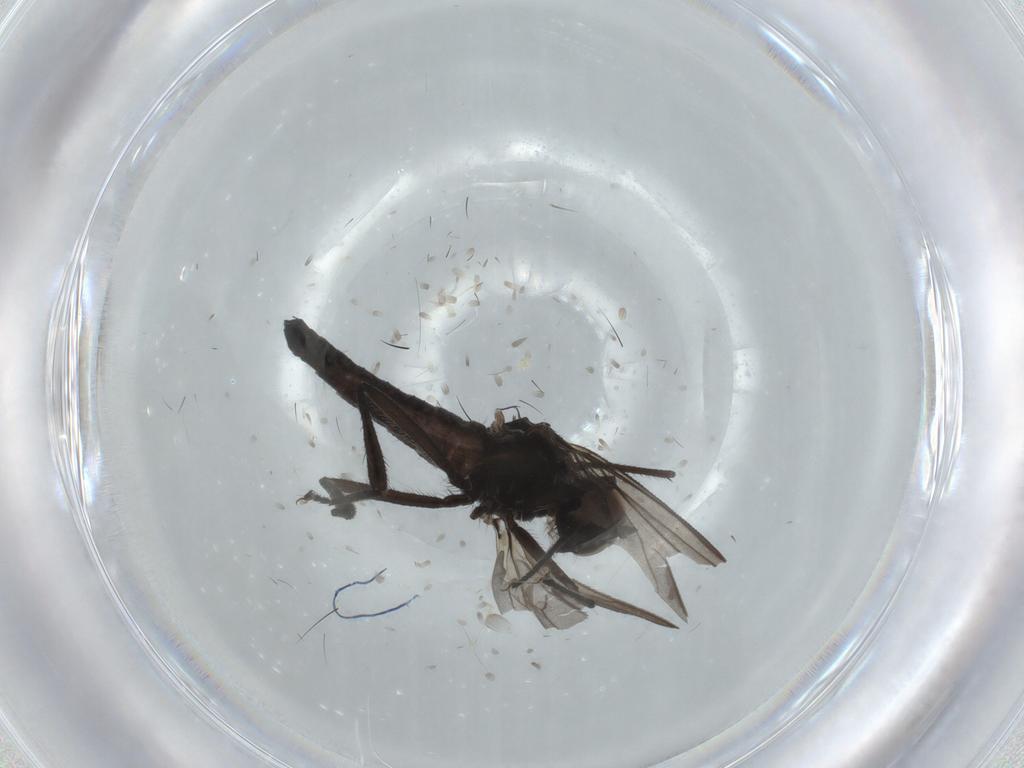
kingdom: Animalia
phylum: Arthropoda
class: Insecta
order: Diptera
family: Hybotidae
